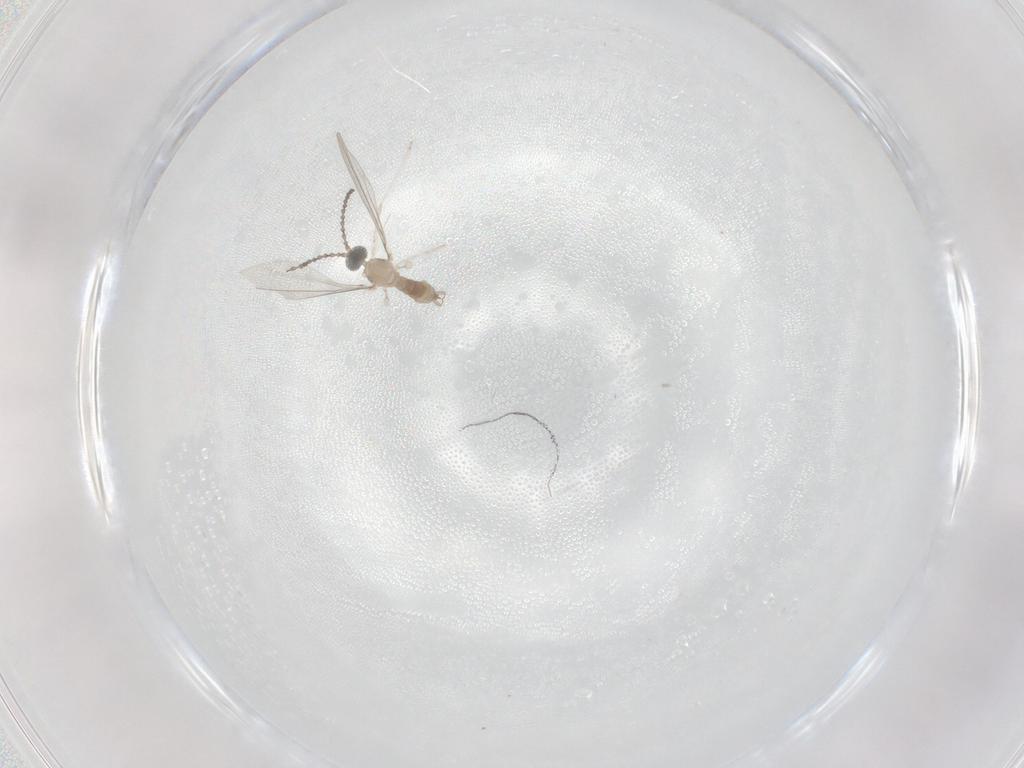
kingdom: Animalia
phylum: Arthropoda
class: Insecta
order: Diptera
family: Cecidomyiidae
